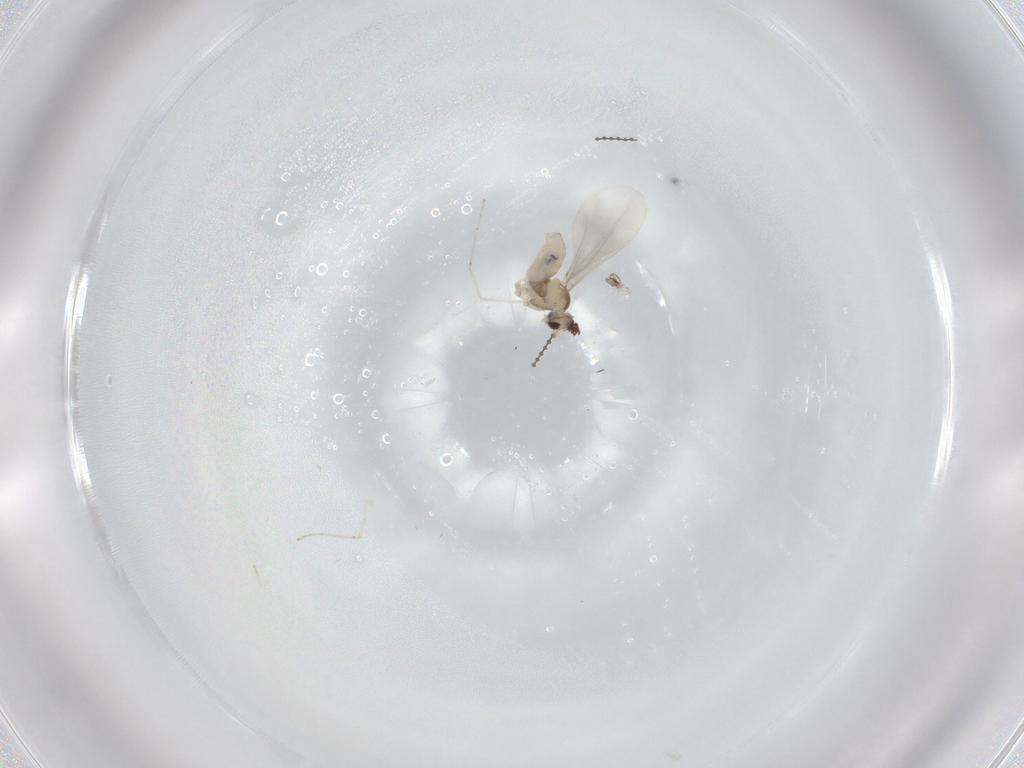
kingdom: Animalia
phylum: Arthropoda
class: Insecta
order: Diptera
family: Cecidomyiidae
